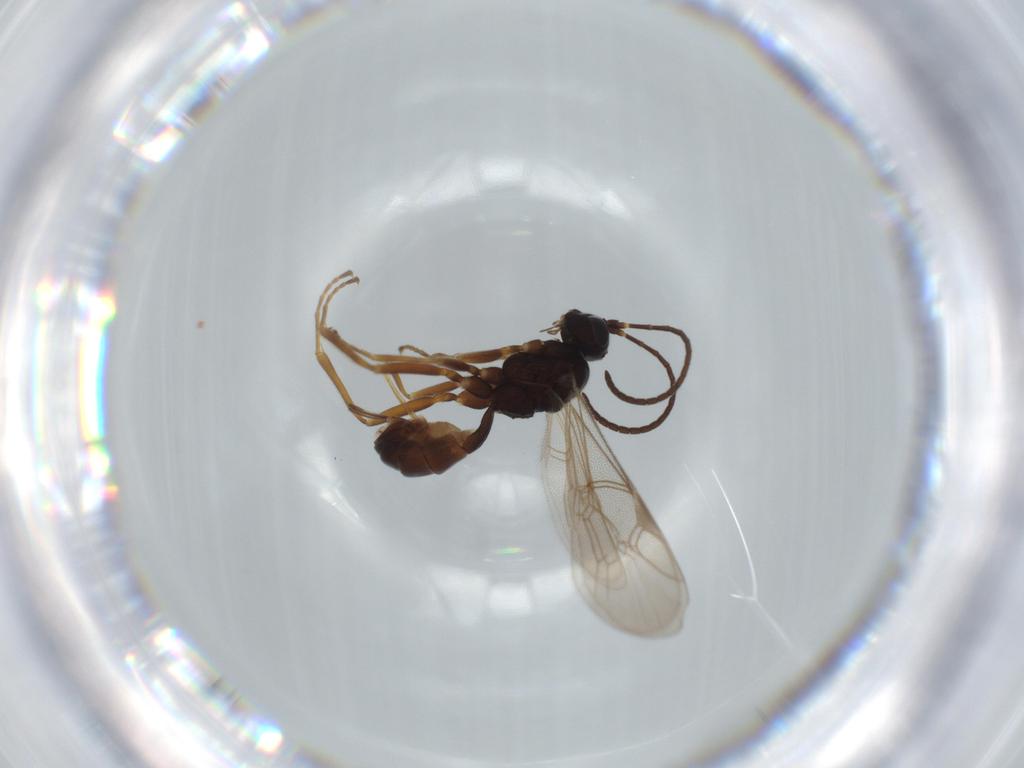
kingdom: Animalia
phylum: Arthropoda
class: Insecta
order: Hymenoptera
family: Ichneumonidae
